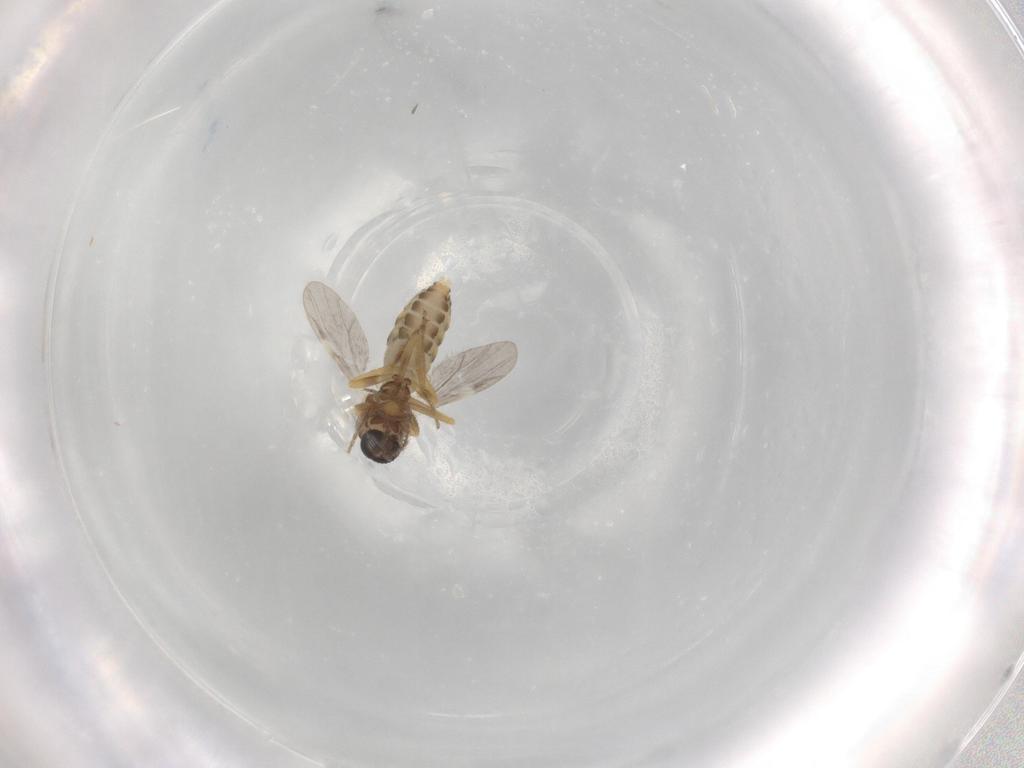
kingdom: Animalia
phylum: Arthropoda
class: Insecta
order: Diptera
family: Ceratopogonidae
